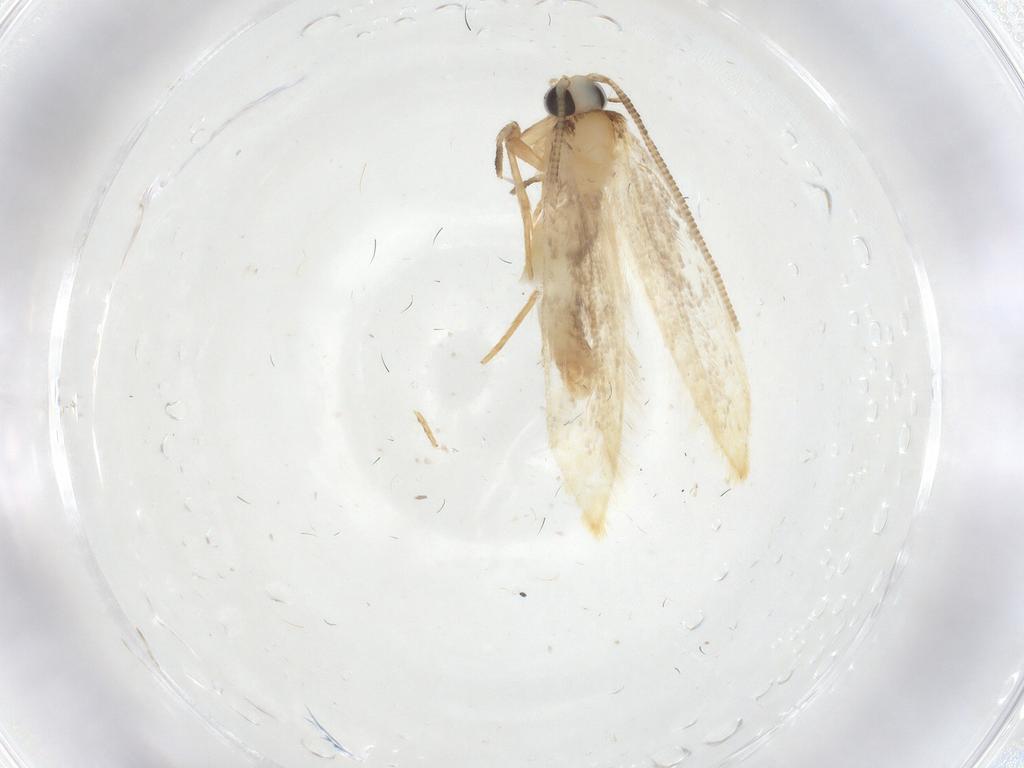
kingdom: Animalia
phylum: Arthropoda
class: Insecta
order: Lepidoptera
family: Tineidae
